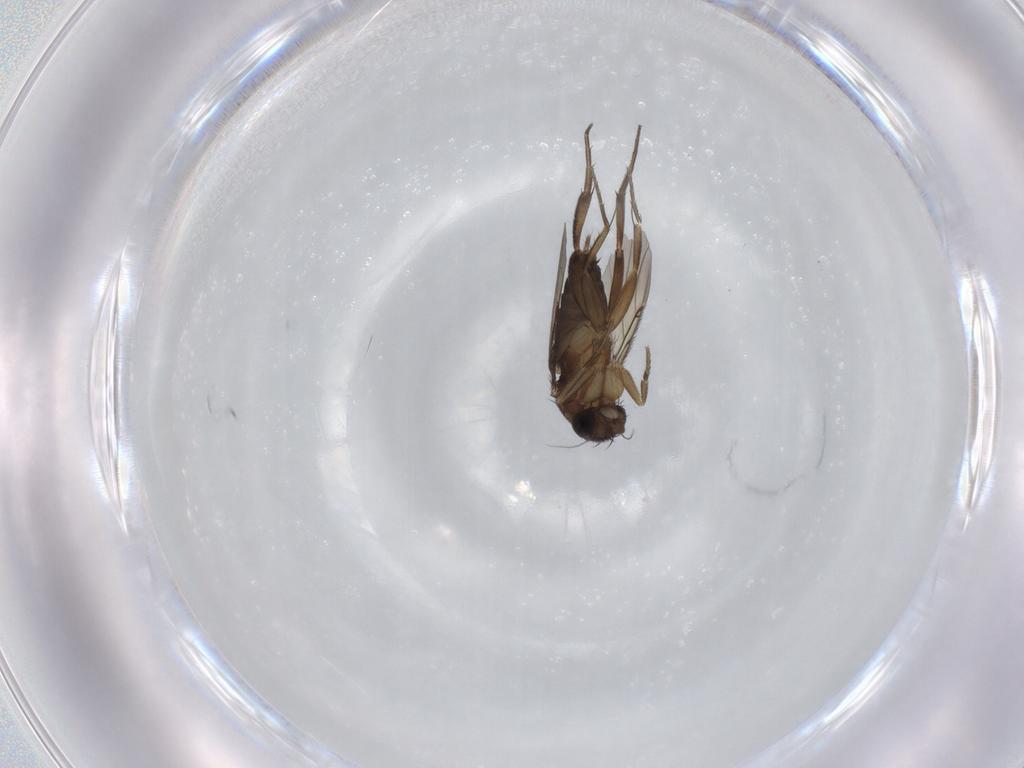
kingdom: Animalia
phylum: Arthropoda
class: Insecta
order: Diptera
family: Phoridae
